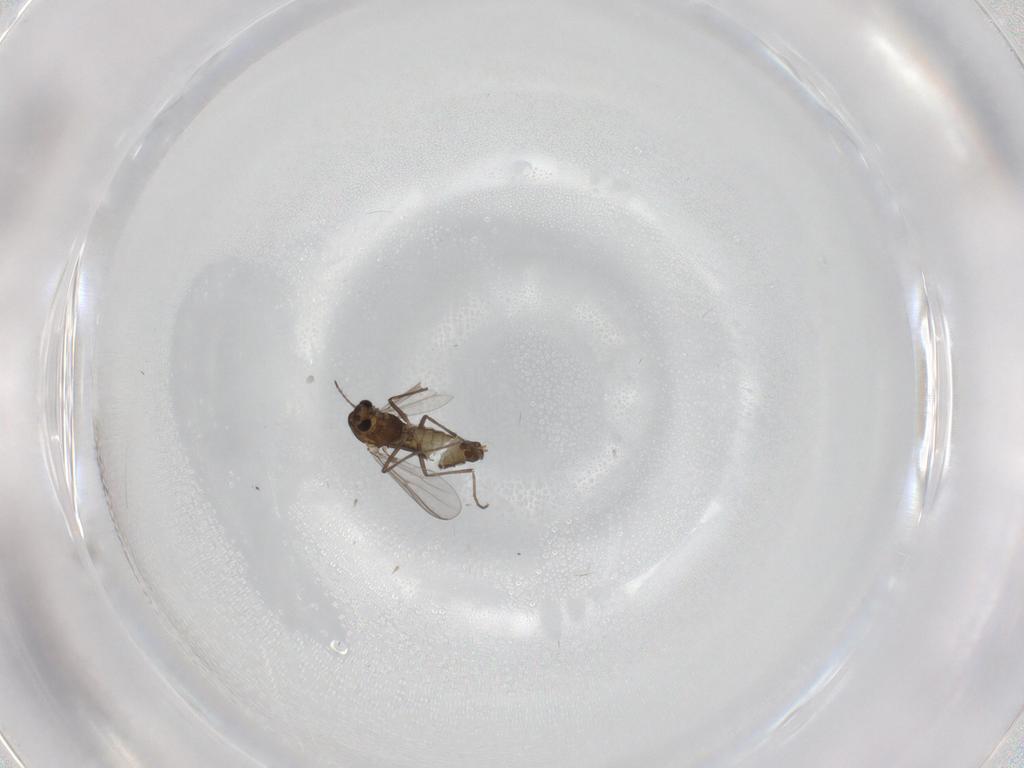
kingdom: Animalia
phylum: Arthropoda
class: Insecta
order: Diptera
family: Chironomidae
